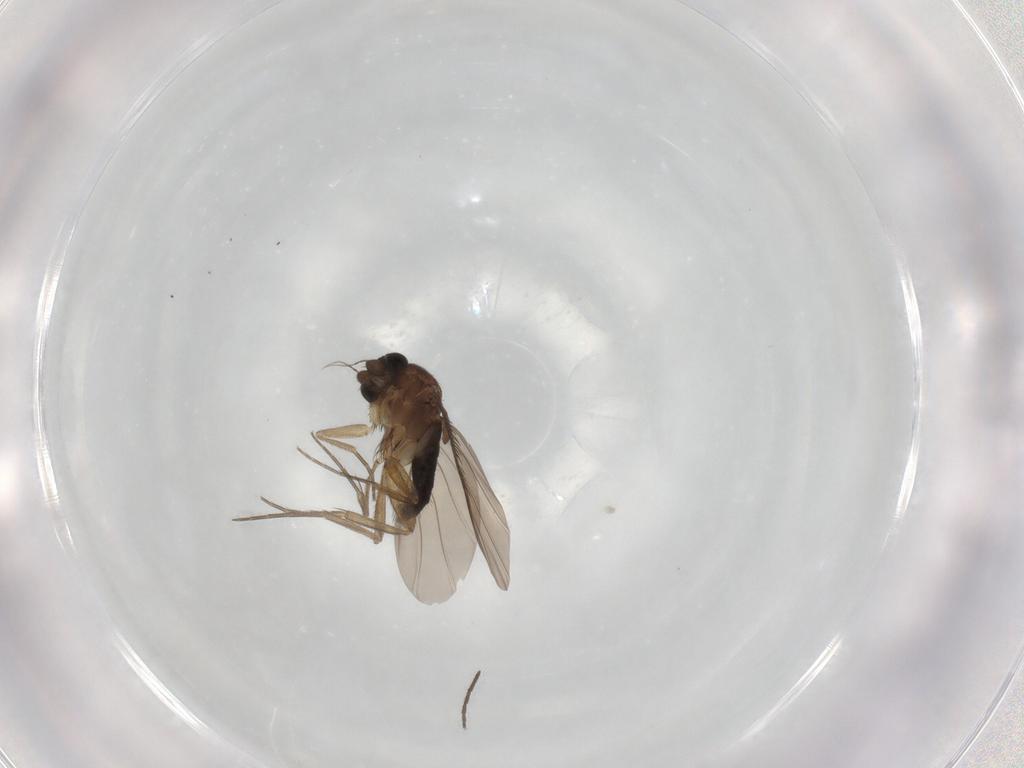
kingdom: Animalia
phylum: Arthropoda
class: Insecta
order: Diptera
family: Phoridae
